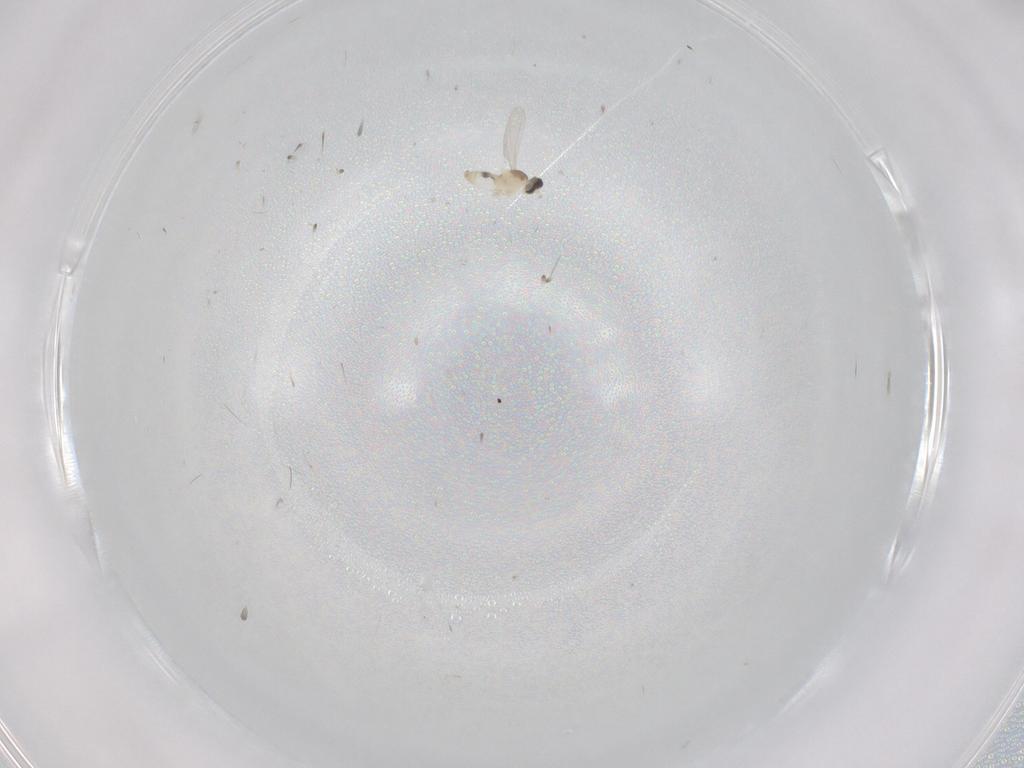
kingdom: Animalia
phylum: Arthropoda
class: Insecta
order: Diptera
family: Cecidomyiidae
